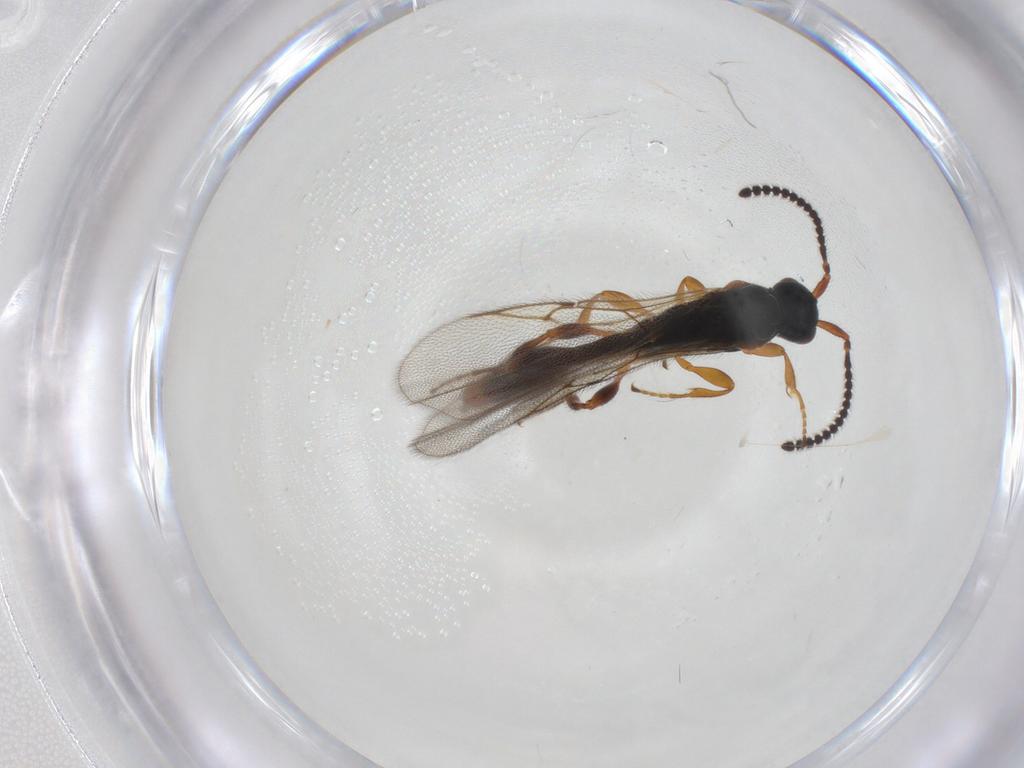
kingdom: Animalia
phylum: Arthropoda
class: Insecta
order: Hymenoptera
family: Diapriidae
